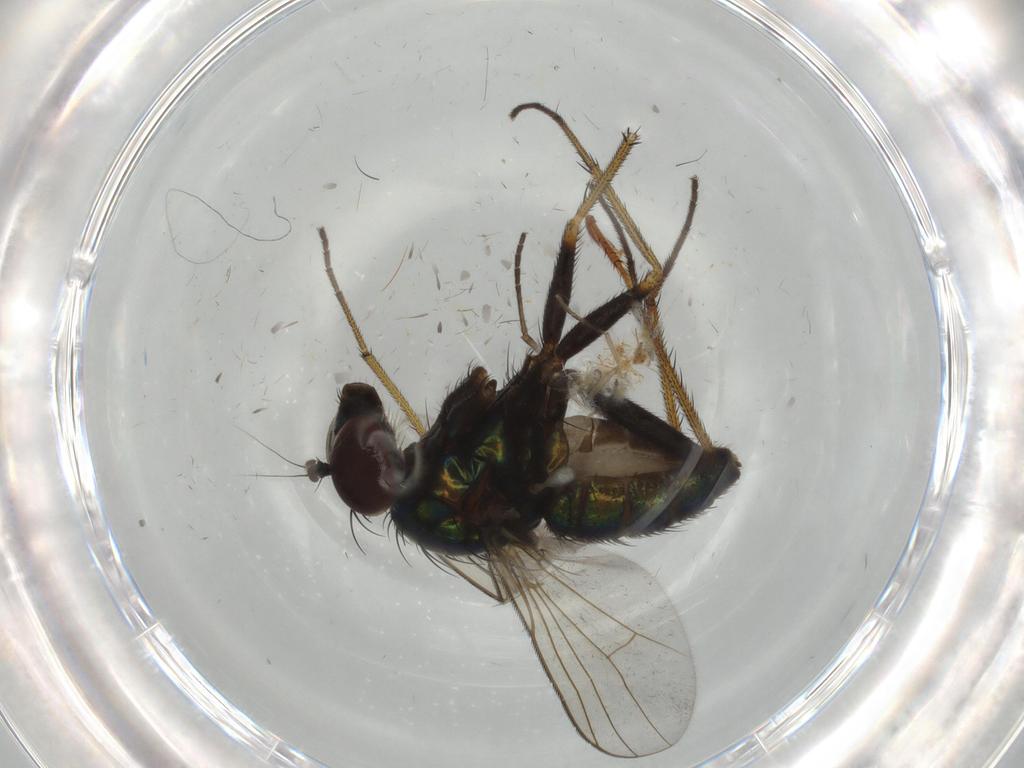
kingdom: Animalia
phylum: Arthropoda
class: Insecta
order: Diptera
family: Dolichopodidae
